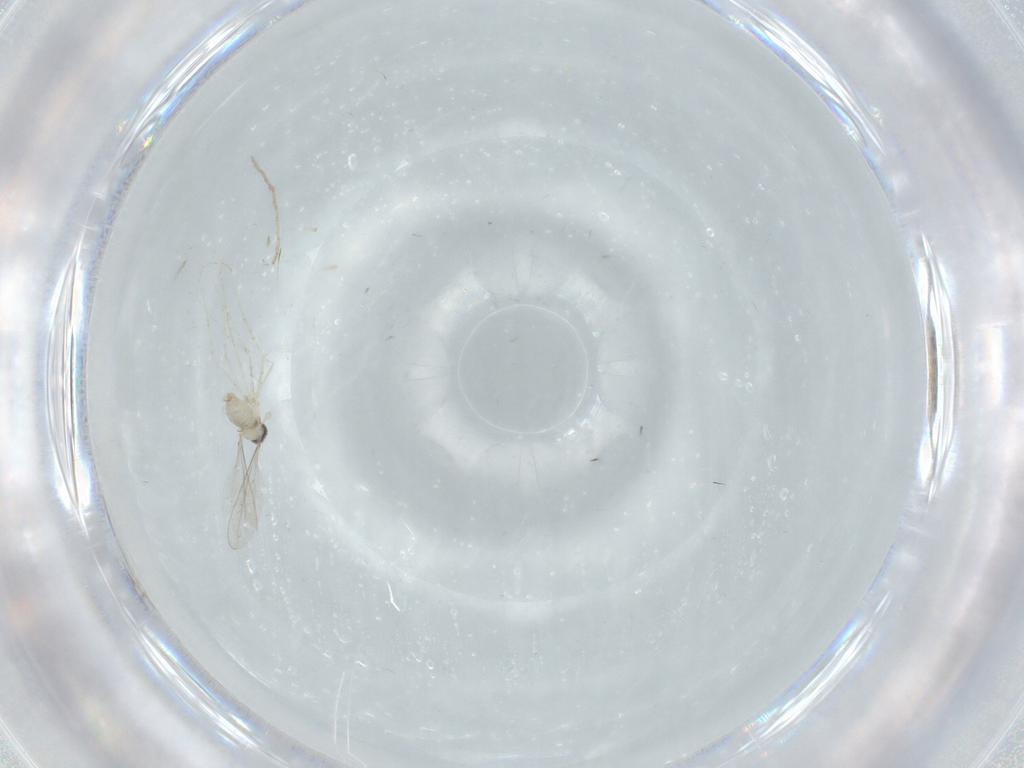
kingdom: Animalia
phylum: Arthropoda
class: Insecta
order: Diptera
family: Cecidomyiidae
